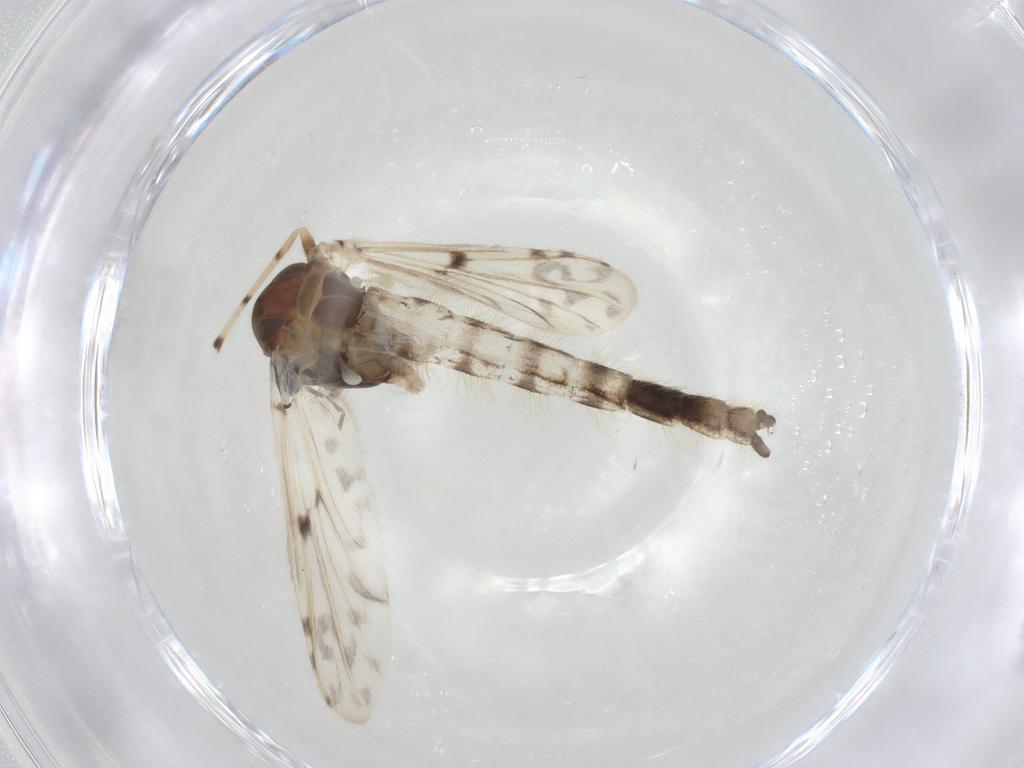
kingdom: Animalia
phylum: Arthropoda
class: Insecta
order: Diptera
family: Chironomidae
